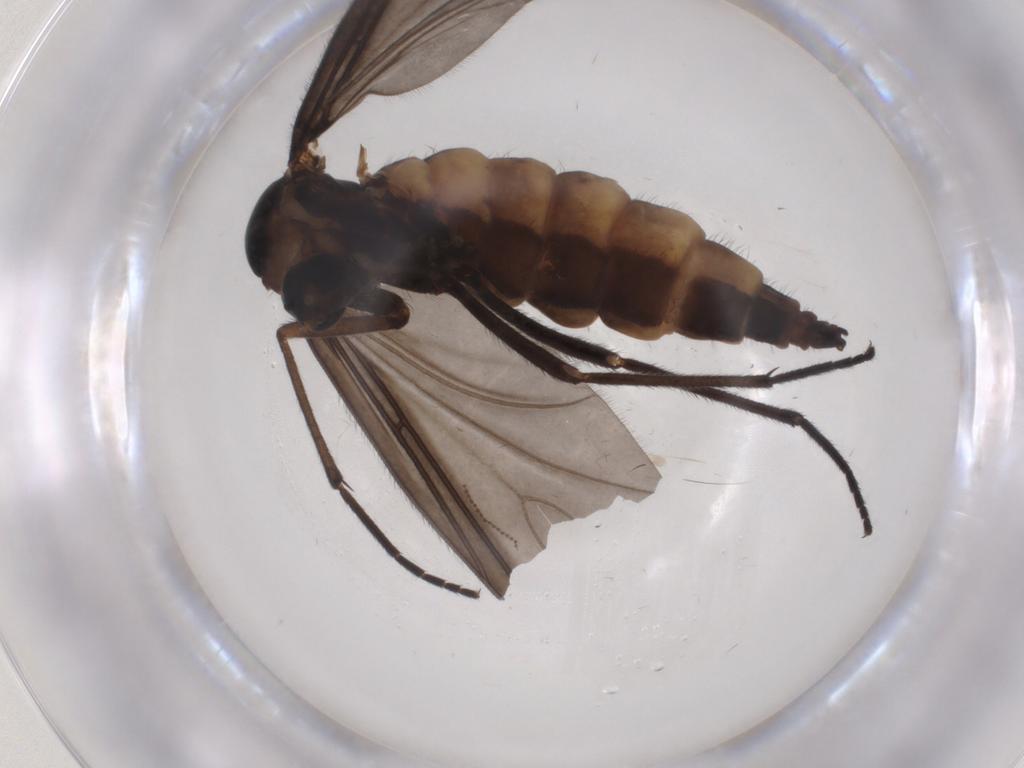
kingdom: Animalia
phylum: Arthropoda
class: Insecta
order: Diptera
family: Sciaridae
